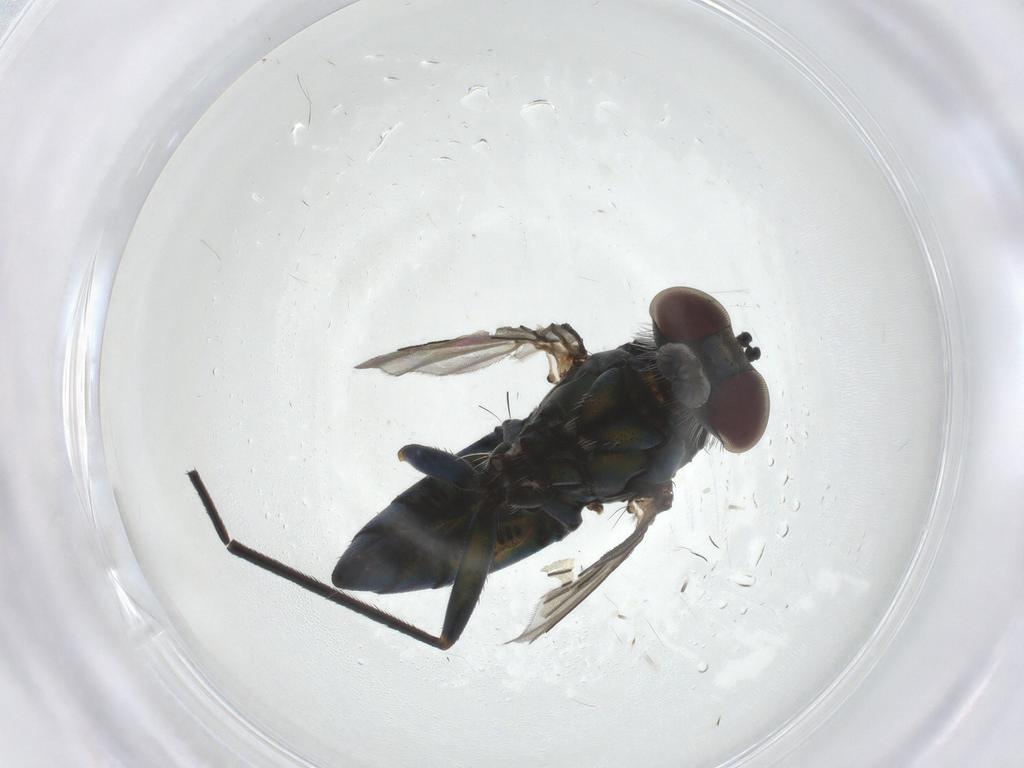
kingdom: Animalia
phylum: Arthropoda
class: Insecta
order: Diptera
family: Dolichopodidae
